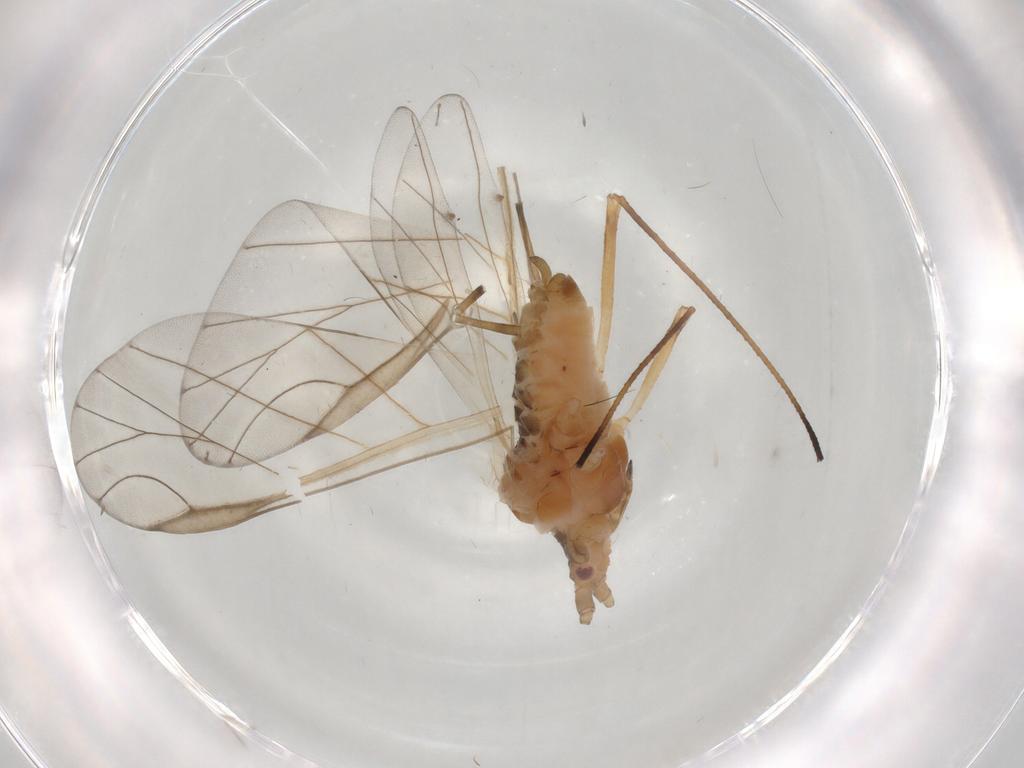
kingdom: Animalia
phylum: Arthropoda
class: Insecta
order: Hemiptera
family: Aphididae
